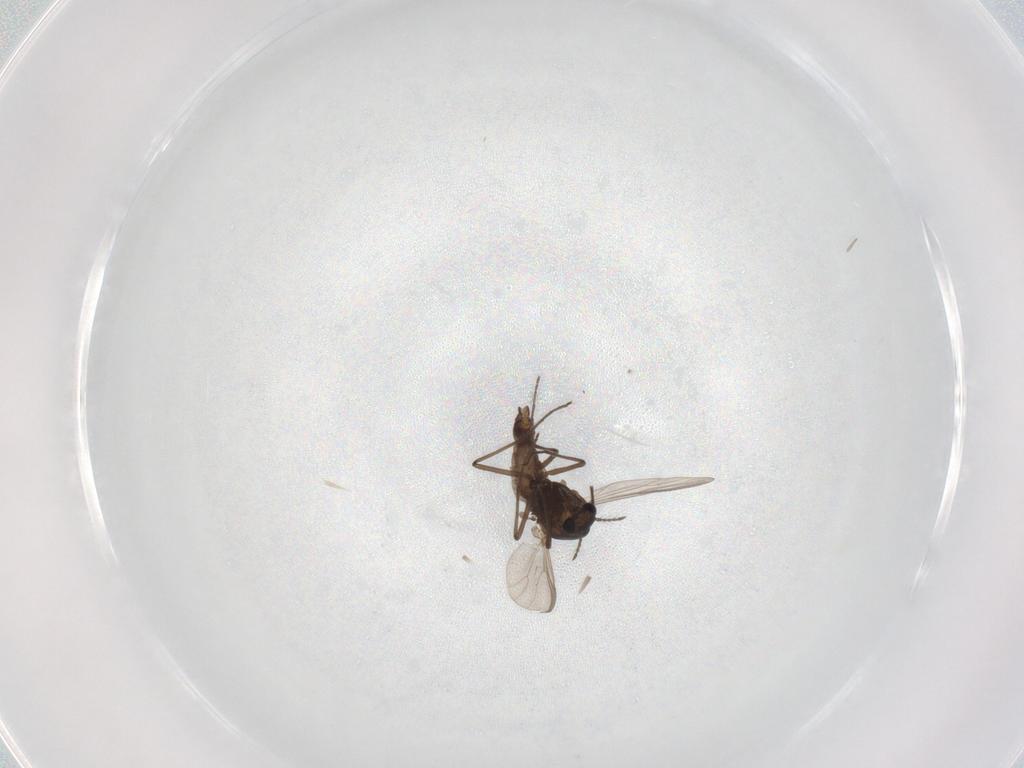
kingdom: Animalia
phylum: Arthropoda
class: Insecta
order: Diptera
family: Chironomidae
